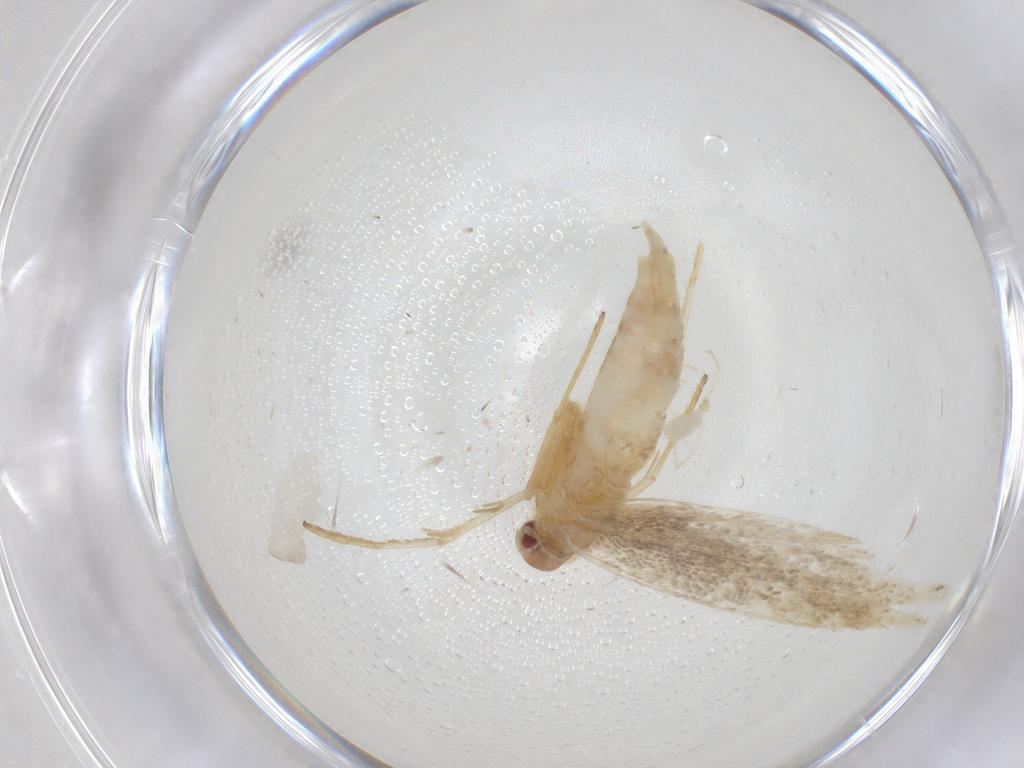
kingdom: Animalia
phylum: Arthropoda
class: Insecta
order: Lepidoptera
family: Cosmopterigidae
